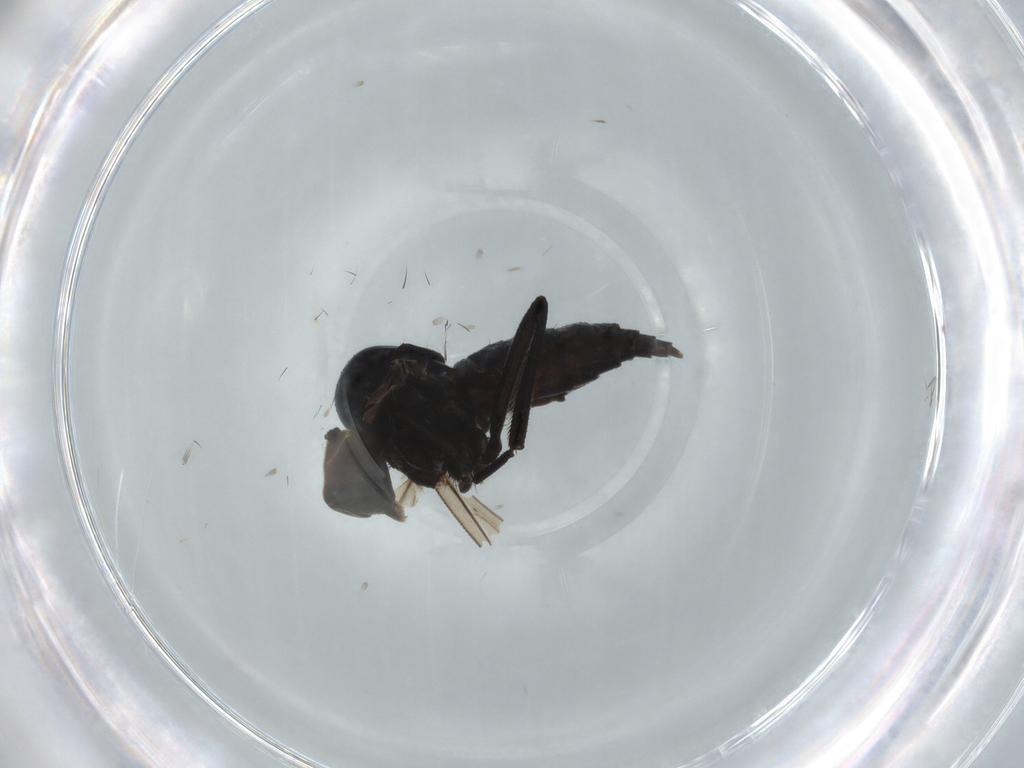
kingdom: Animalia
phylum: Arthropoda
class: Insecta
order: Diptera
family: Hybotidae
